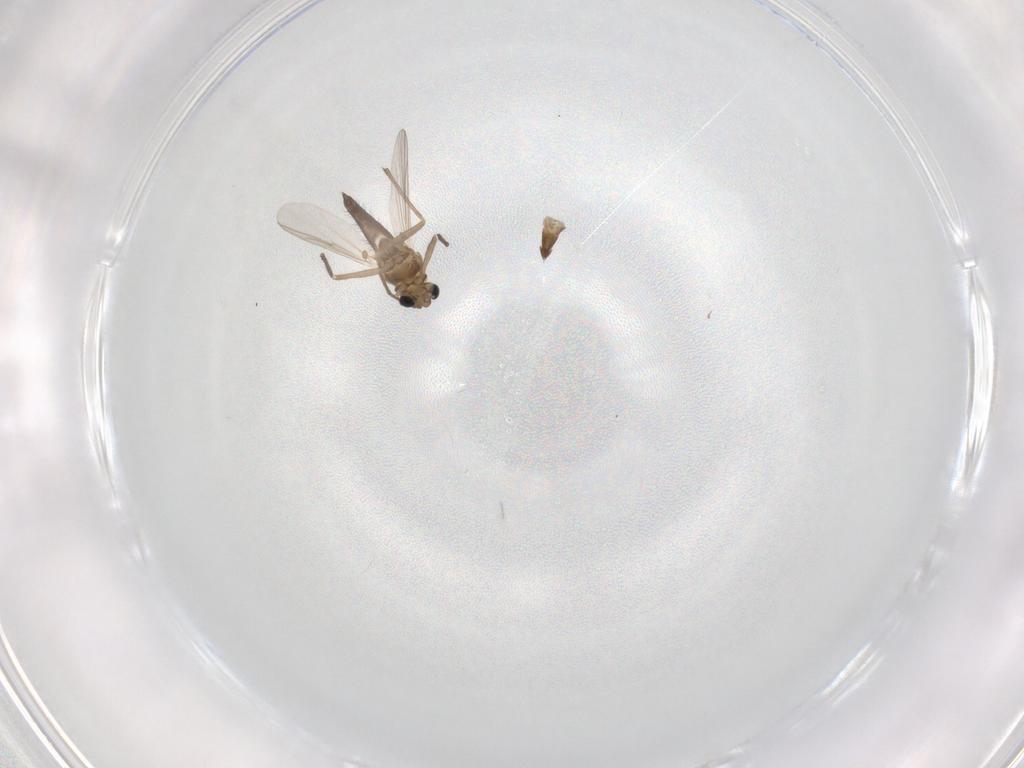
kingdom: Animalia
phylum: Arthropoda
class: Insecta
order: Diptera
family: Chironomidae
